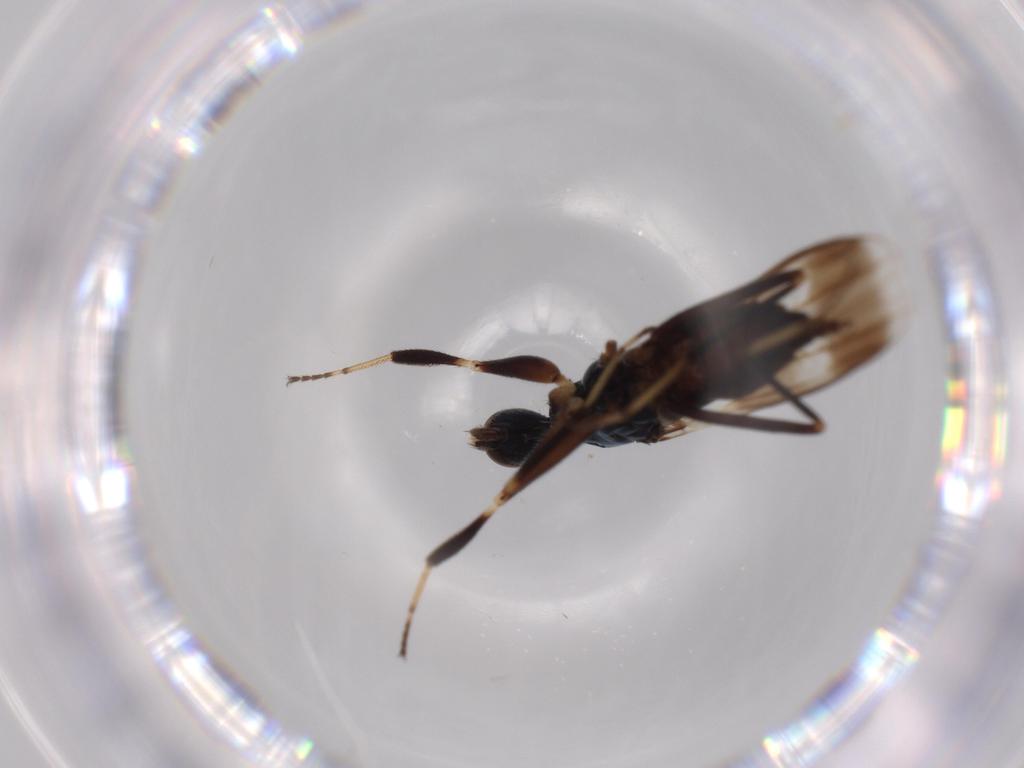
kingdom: Animalia
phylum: Arthropoda
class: Insecta
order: Diptera
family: Hybotidae
